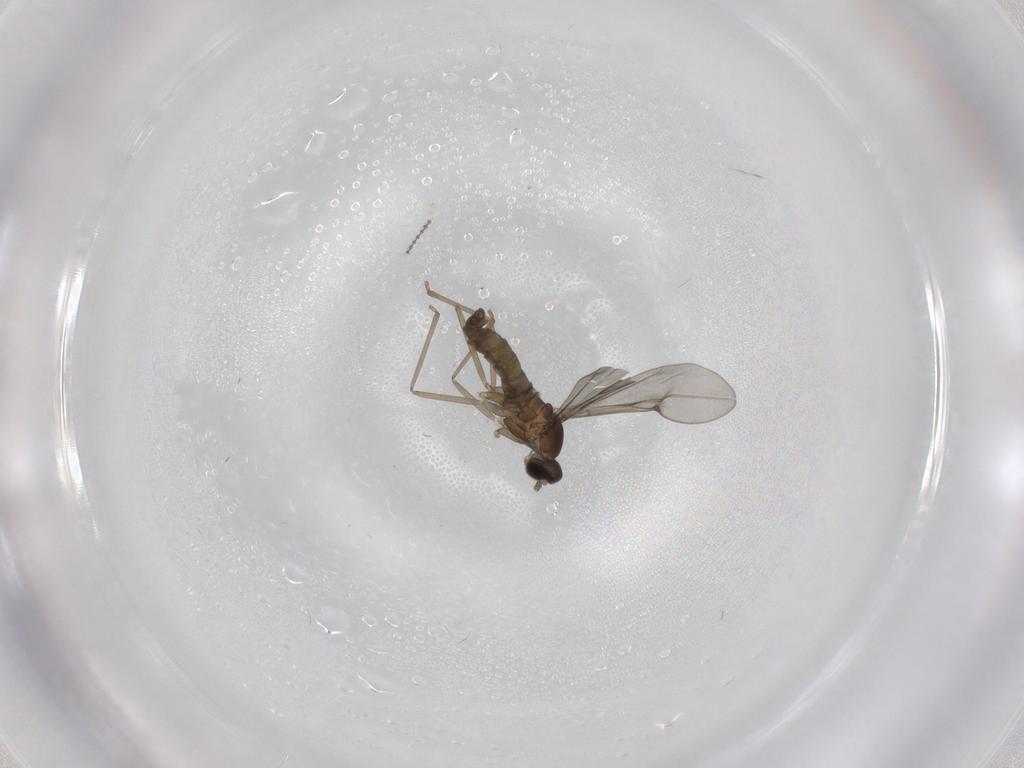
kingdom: Animalia
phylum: Arthropoda
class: Insecta
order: Diptera
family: Cecidomyiidae
